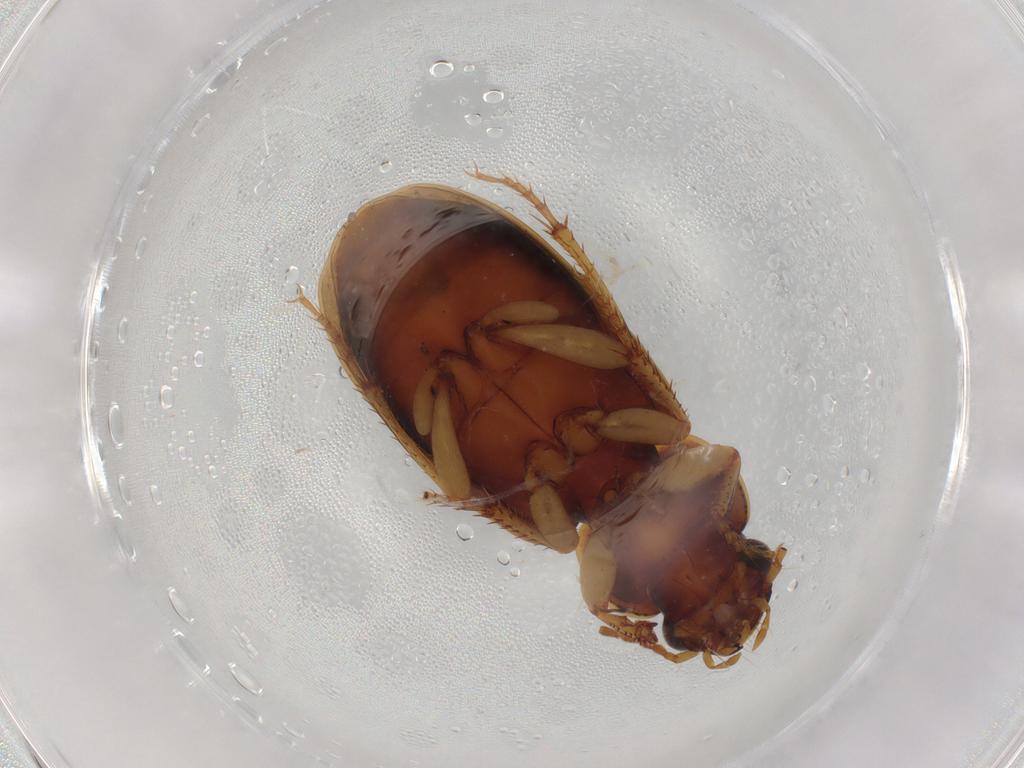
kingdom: Animalia
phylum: Arthropoda
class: Insecta
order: Coleoptera
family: Carabidae
